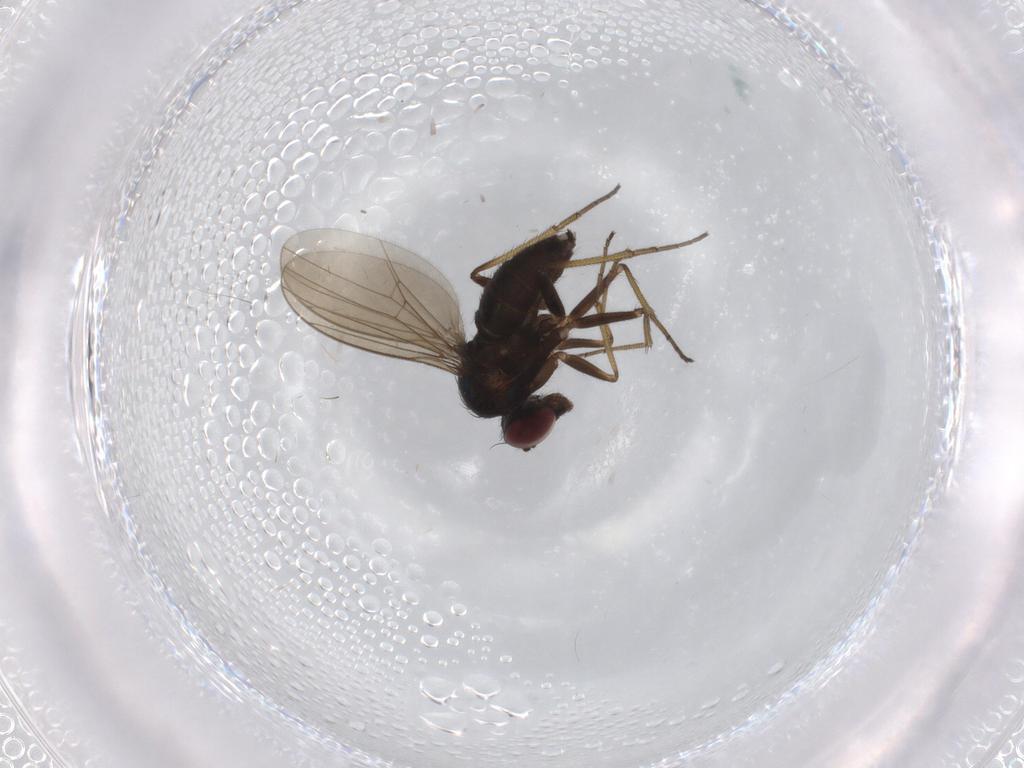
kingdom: Animalia
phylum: Arthropoda
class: Insecta
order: Diptera
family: Dolichopodidae
